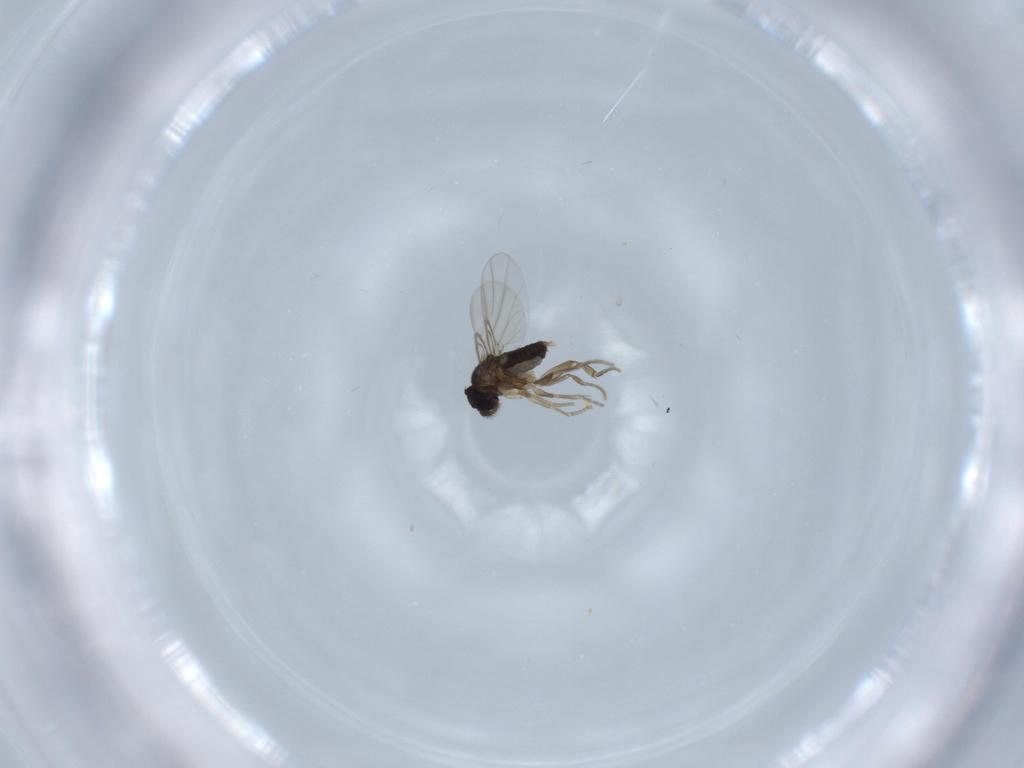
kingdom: Animalia
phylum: Arthropoda
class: Insecta
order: Diptera
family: Phoridae
